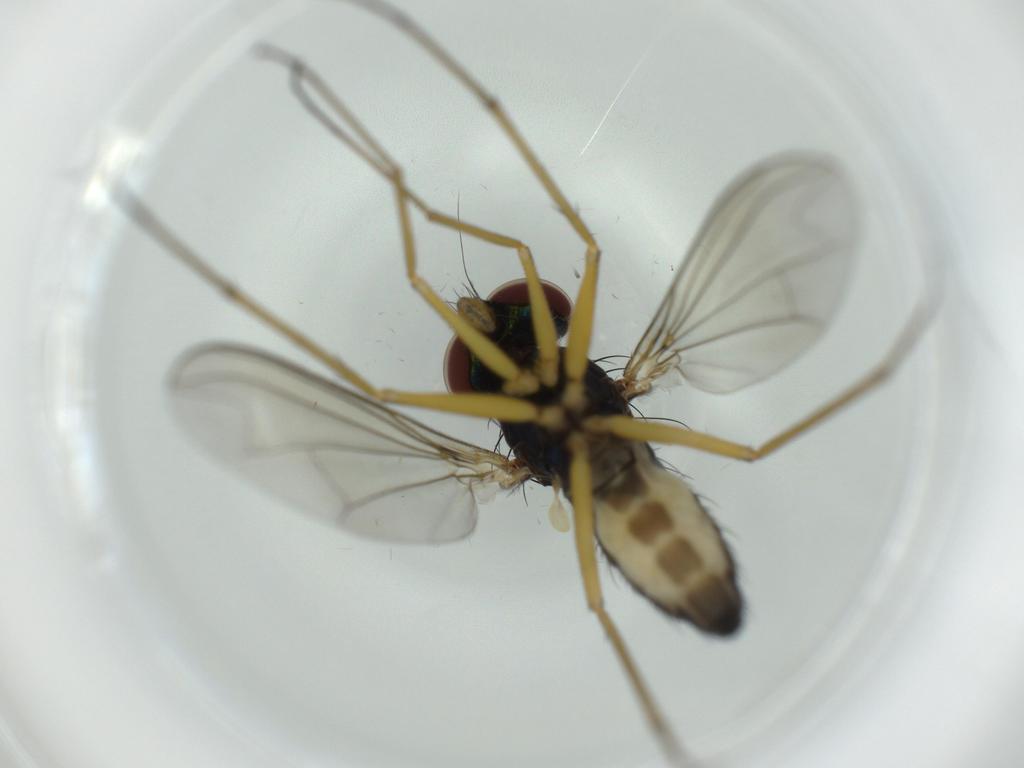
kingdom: Animalia
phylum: Arthropoda
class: Insecta
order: Diptera
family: Dolichopodidae
